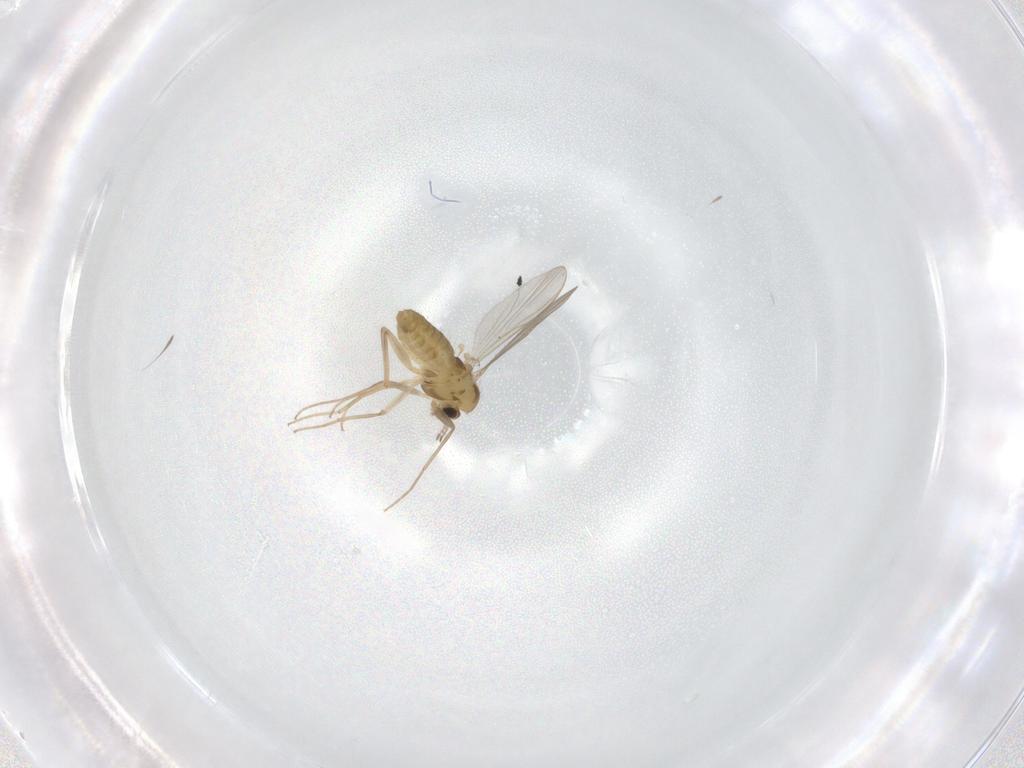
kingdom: Animalia
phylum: Arthropoda
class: Insecta
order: Diptera
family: Chironomidae
